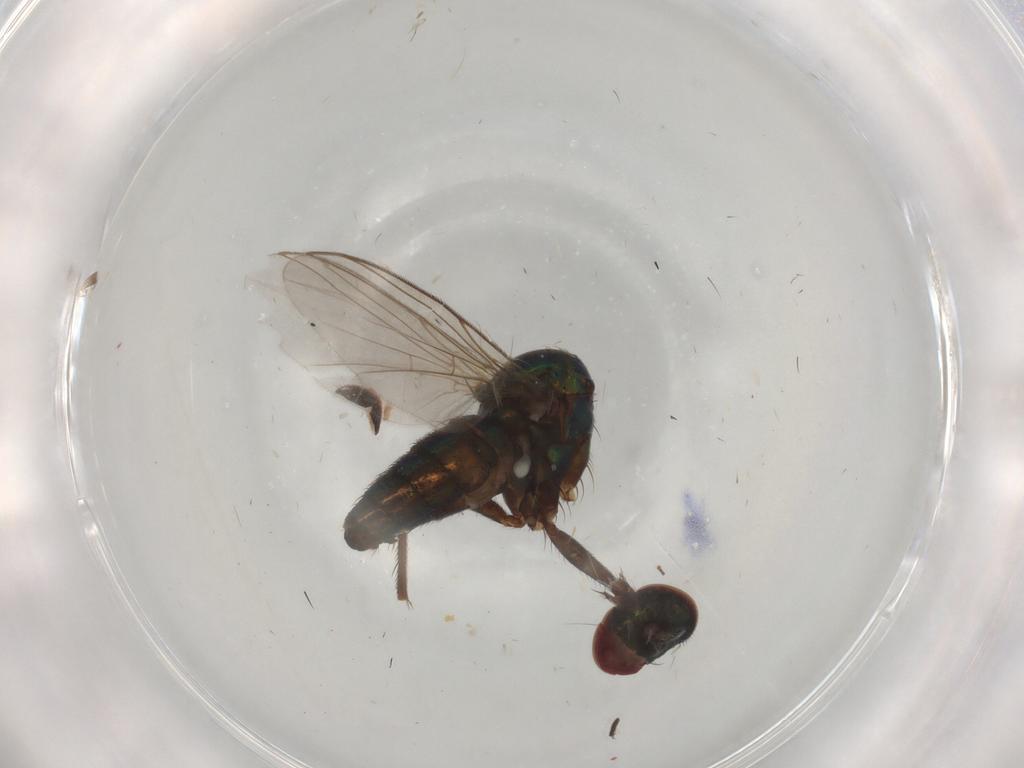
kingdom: Animalia
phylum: Arthropoda
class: Insecta
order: Diptera
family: Dolichopodidae
